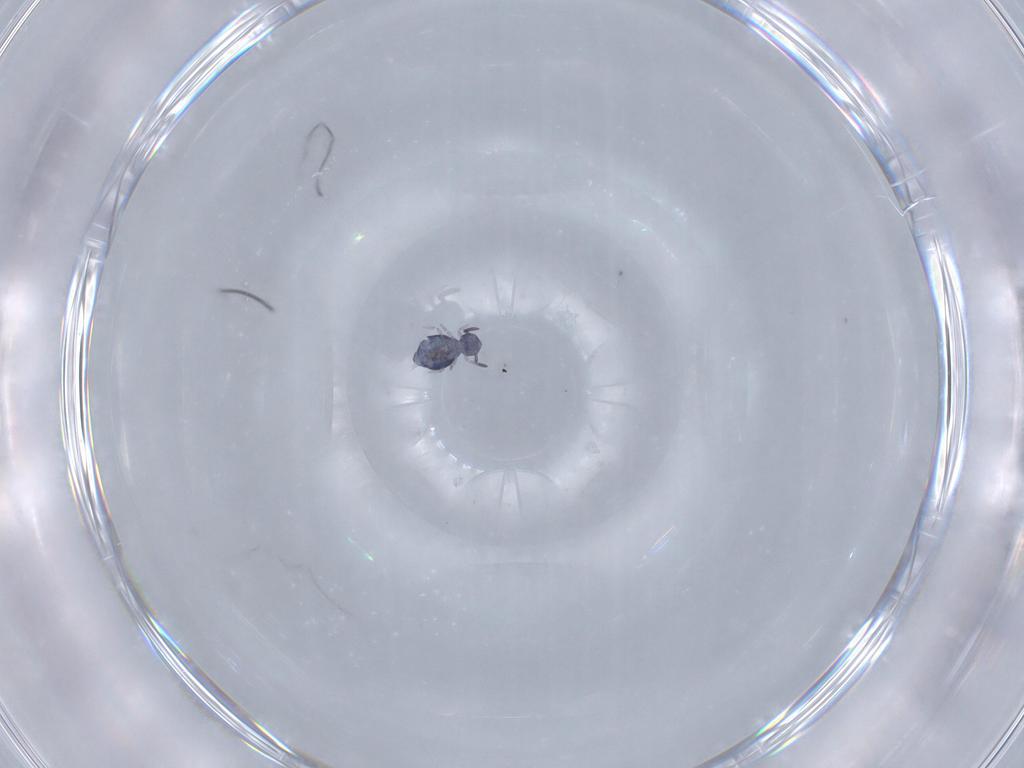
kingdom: Animalia
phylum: Arthropoda
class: Collembola
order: Symphypleona
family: Katiannidae
